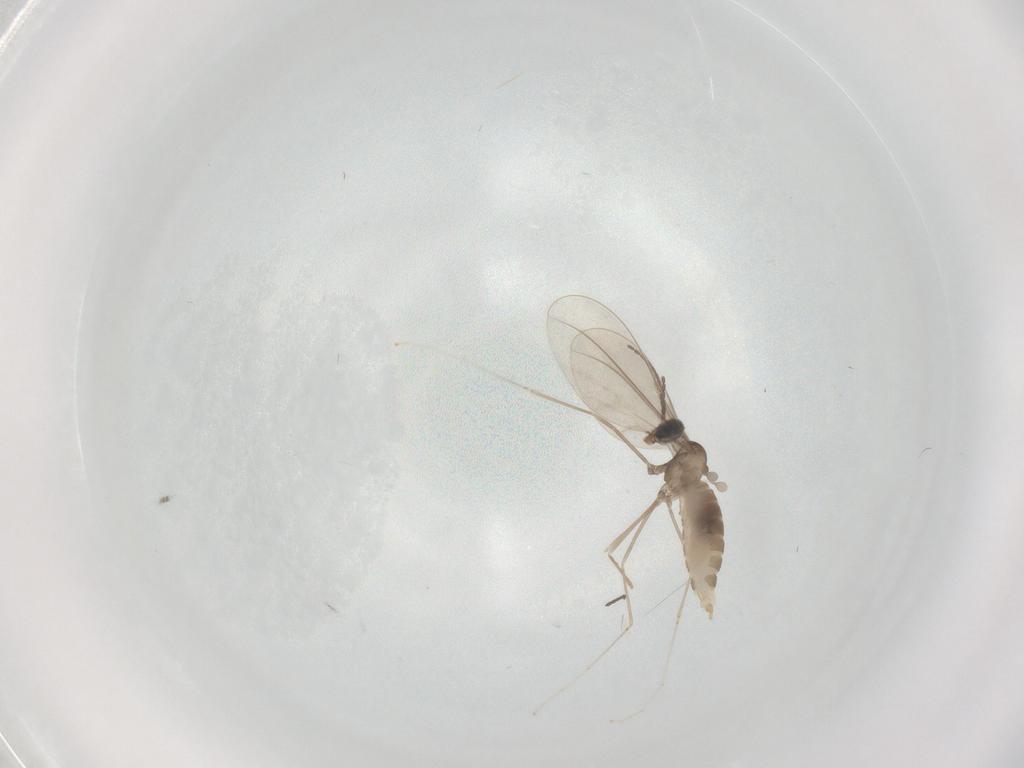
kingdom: Animalia
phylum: Arthropoda
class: Insecta
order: Diptera
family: Cecidomyiidae
